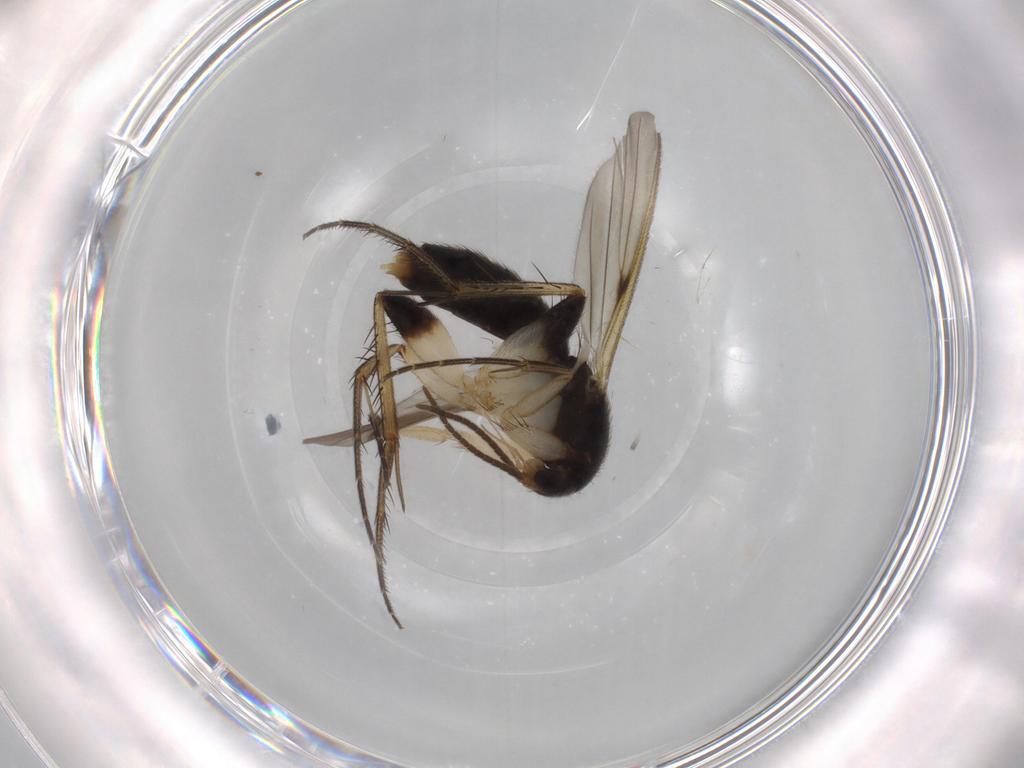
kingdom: Animalia
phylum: Arthropoda
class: Insecta
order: Diptera
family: Mycetophilidae
